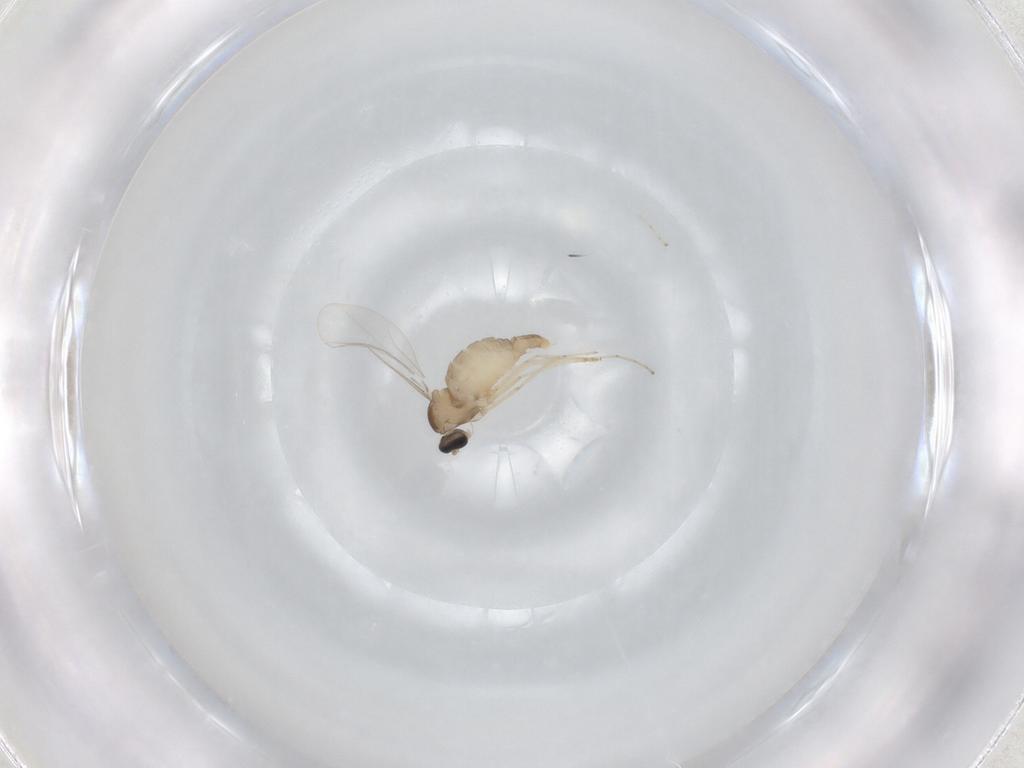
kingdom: Animalia
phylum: Arthropoda
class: Insecta
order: Diptera
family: Cecidomyiidae
